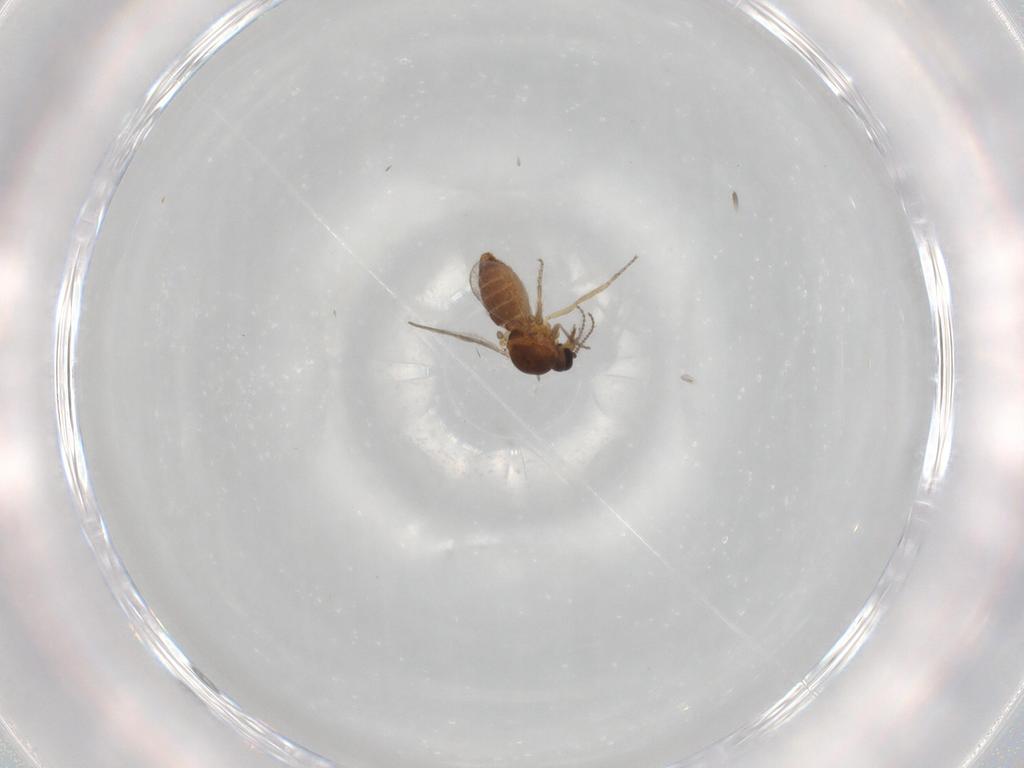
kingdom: Animalia
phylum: Arthropoda
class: Insecta
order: Diptera
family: Ceratopogonidae
